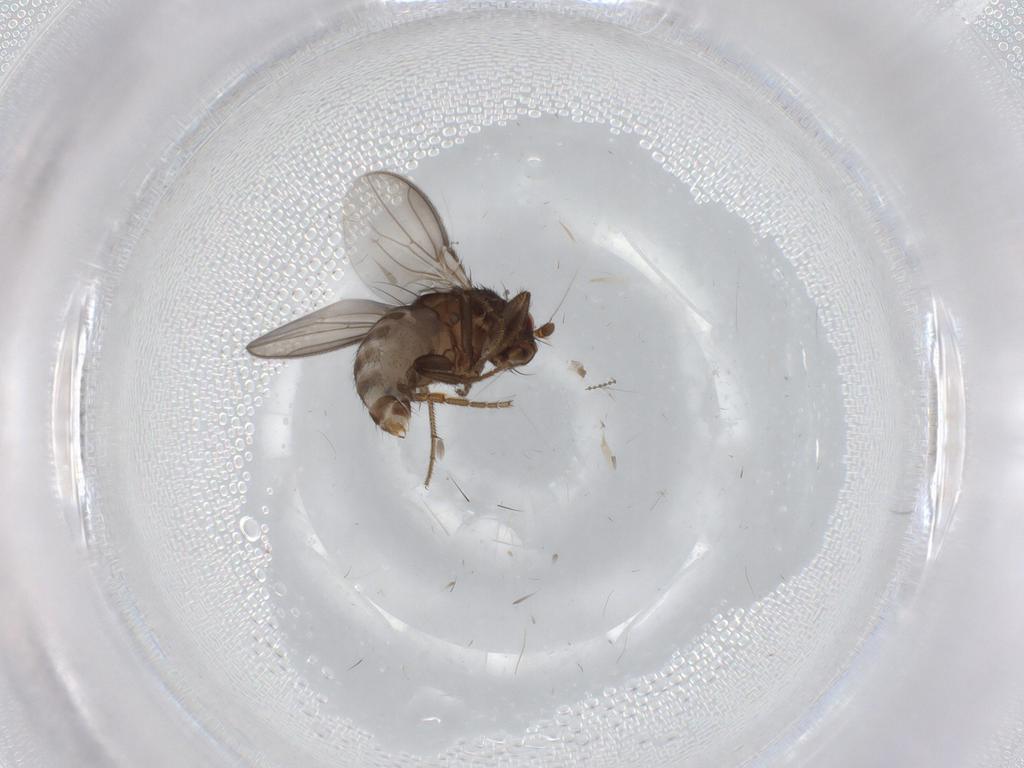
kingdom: Animalia
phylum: Arthropoda
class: Insecta
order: Diptera
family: Sphaeroceridae
